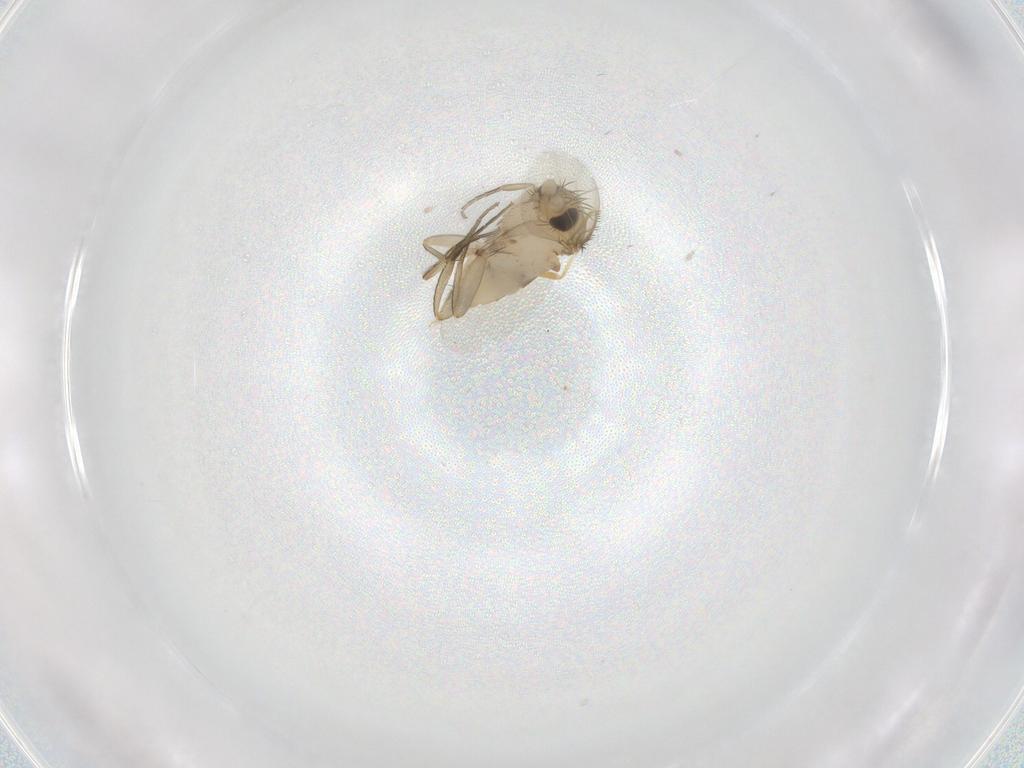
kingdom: Animalia
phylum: Arthropoda
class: Insecta
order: Diptera
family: Phoridae
